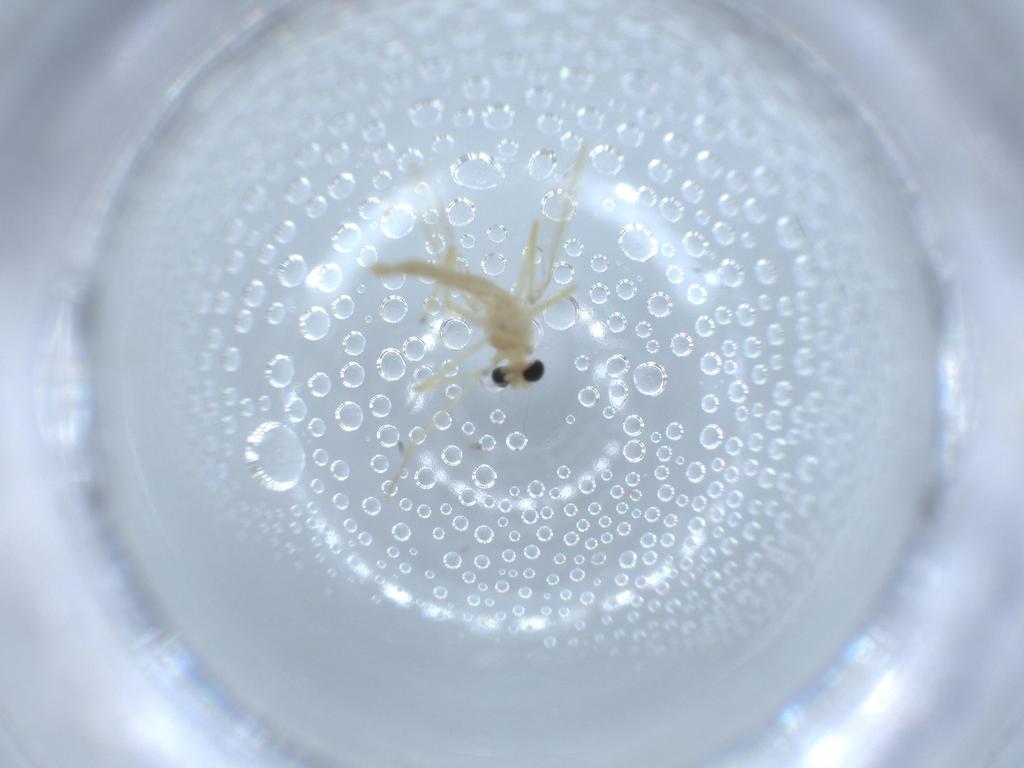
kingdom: Animalia
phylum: Arthropoda
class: Insecta
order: Diptera
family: Chironomidae
